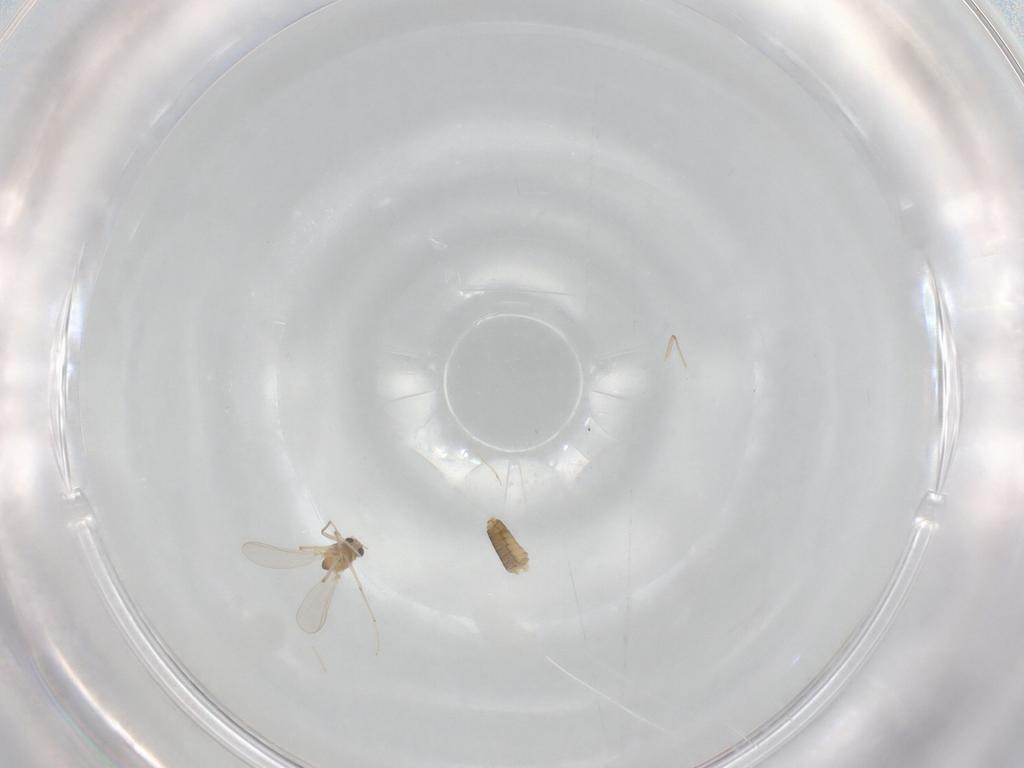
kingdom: Animalia
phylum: Arthropoda
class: Insecta
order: Diptera
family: Chironomidae
